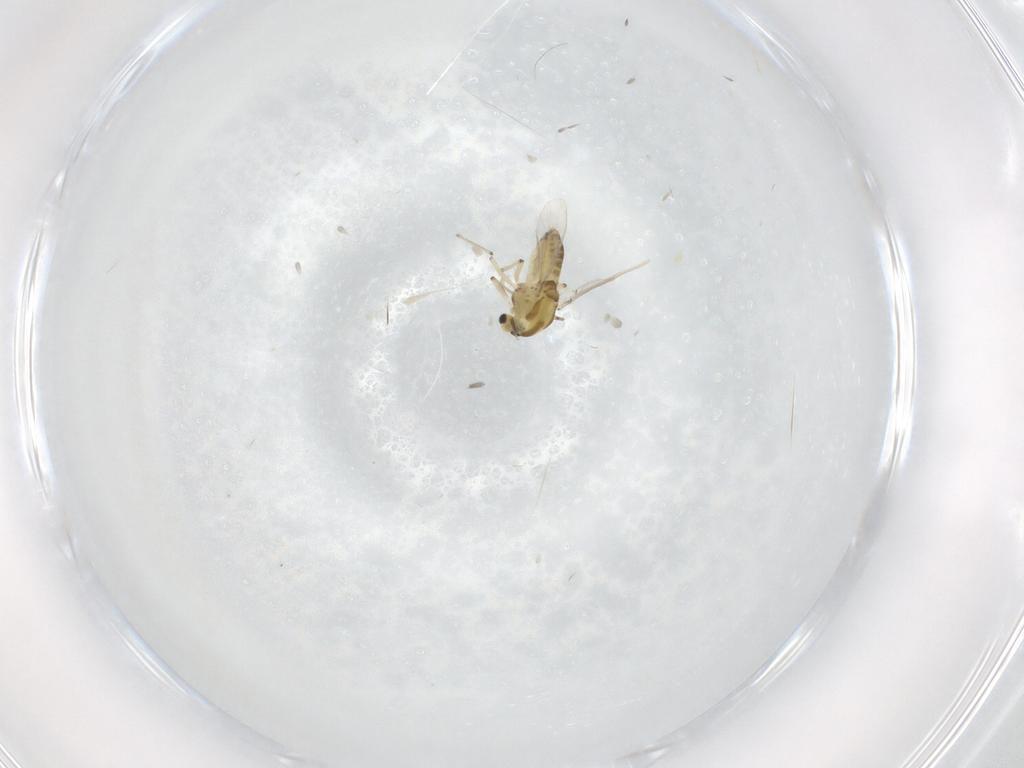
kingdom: Animalia
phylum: Arthropoda
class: Insecta
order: Diptera
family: Chironomidae
